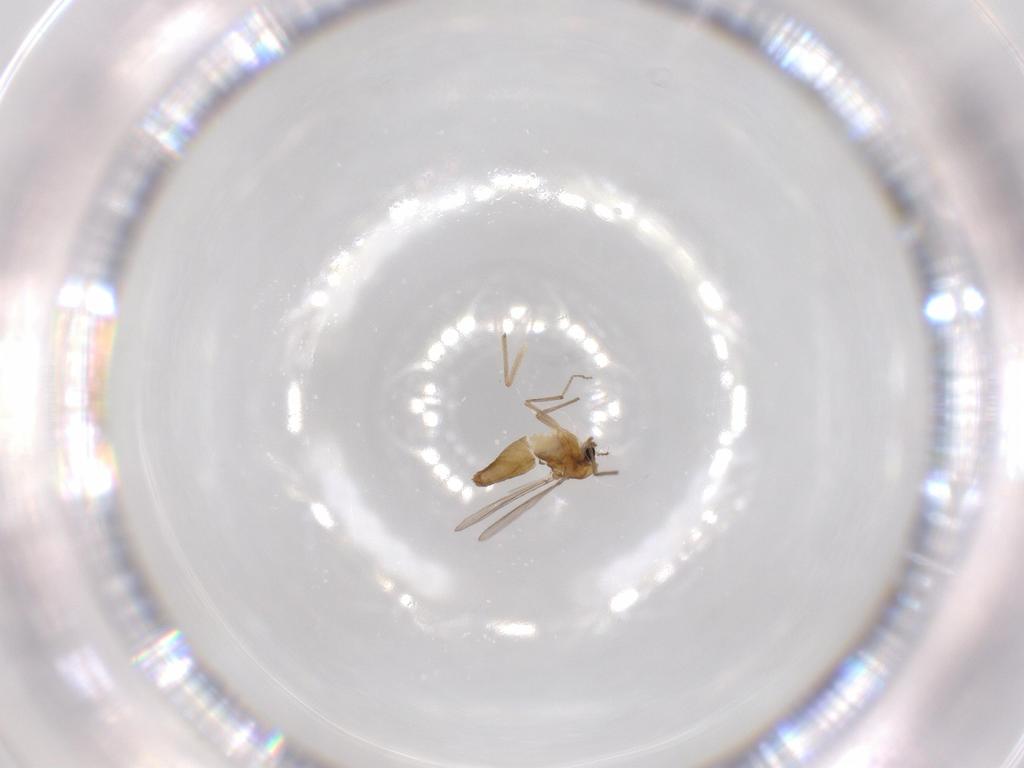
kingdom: Animalia
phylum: Arthropoda
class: Insecta
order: Diptera
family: Chironomidae
